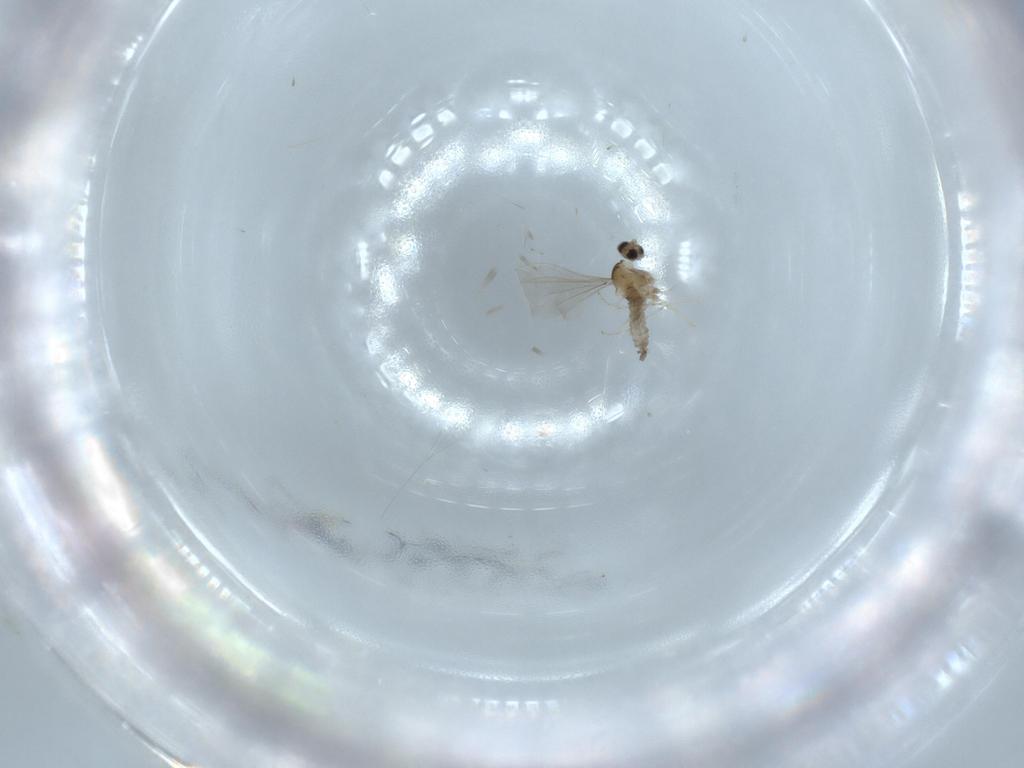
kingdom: Animalia
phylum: Arthropoda
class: Insecta
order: Diptera
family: Cecidomyiidae
